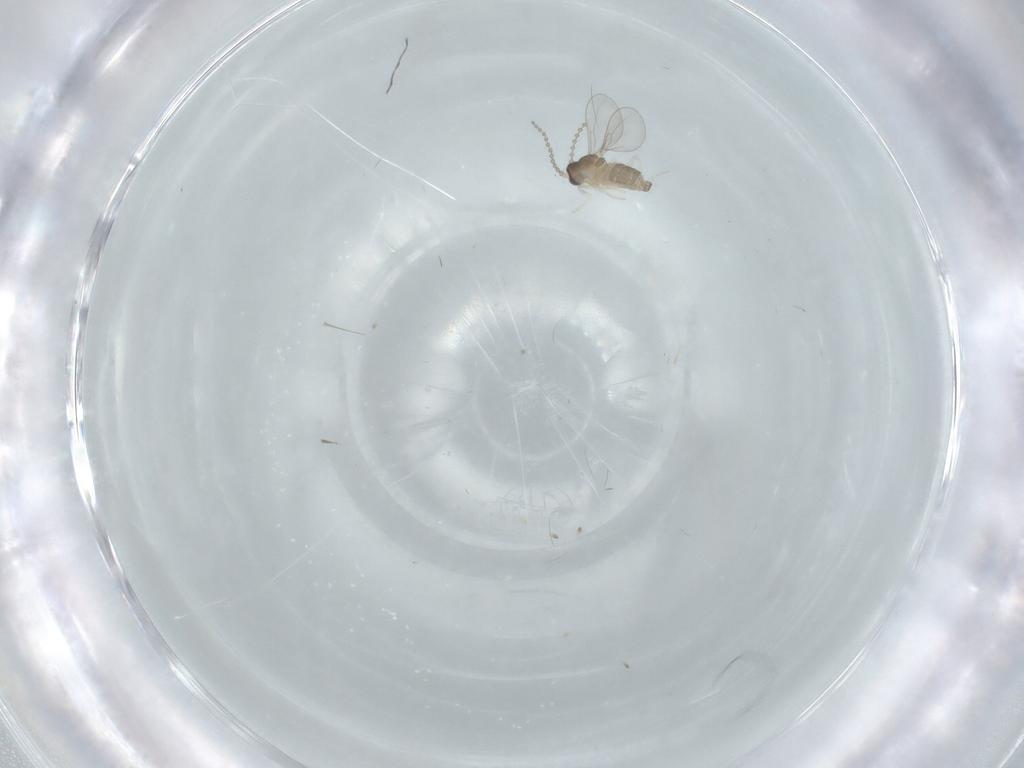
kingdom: Animalia
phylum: Arthropoda
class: Insecta
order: Diptera
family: Cecidomyiidae
